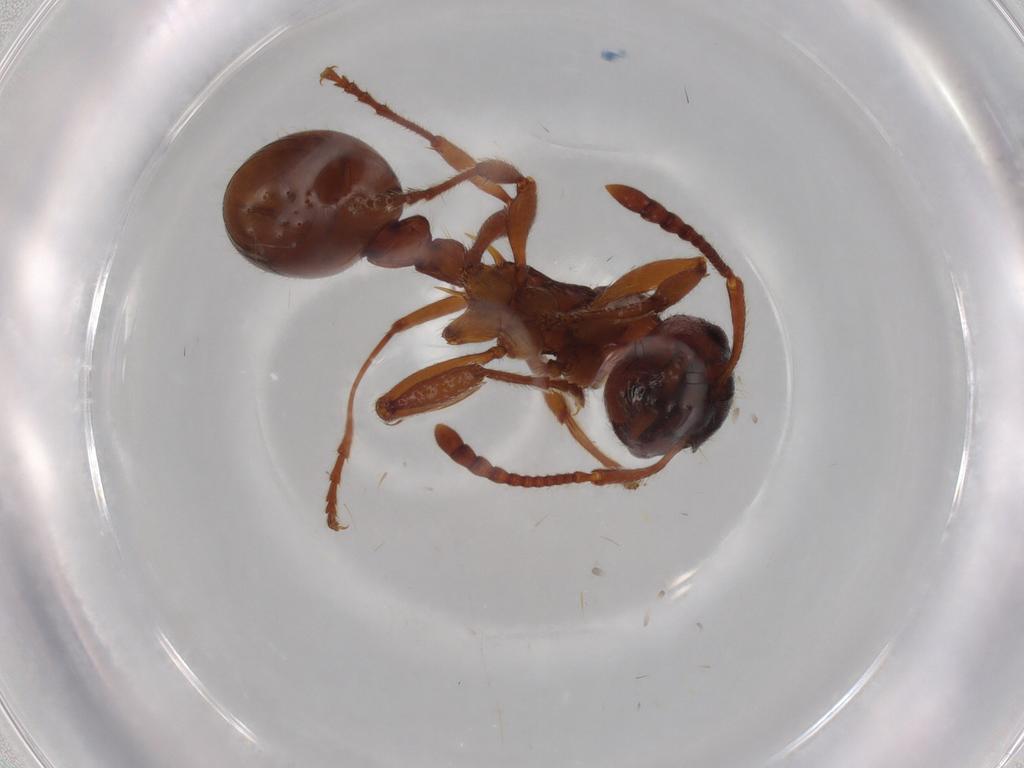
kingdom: Animalia
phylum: Arthropoda
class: Insecta
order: Hymenoptera
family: Formicidae
